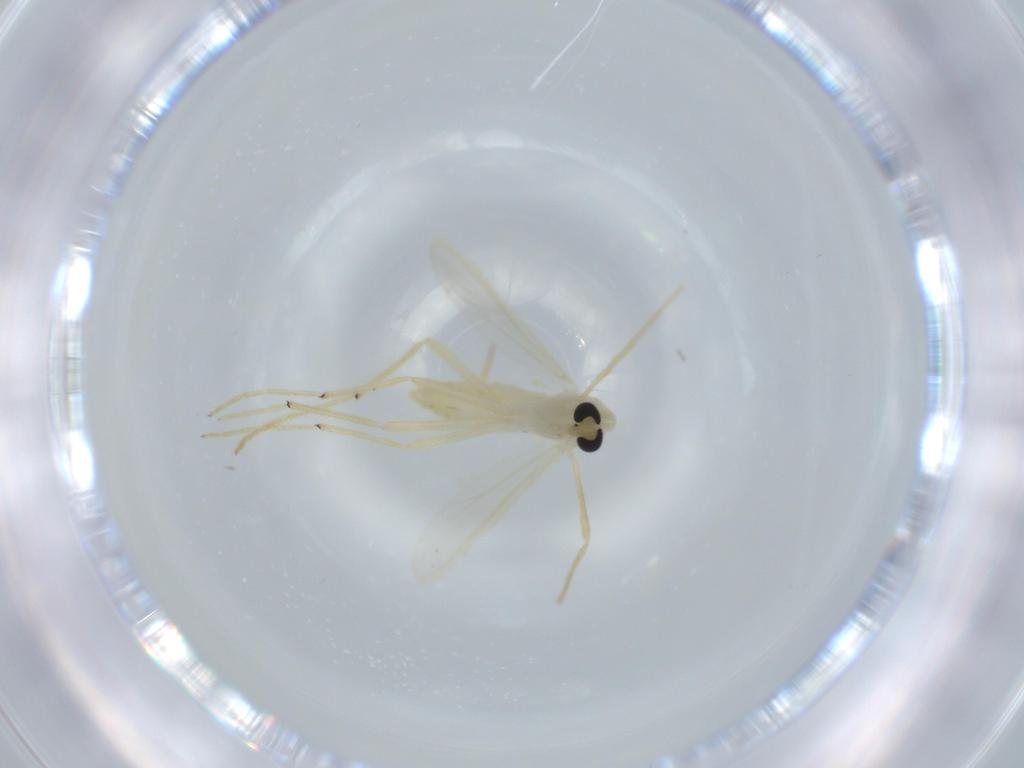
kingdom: Animalia
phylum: Arthropoda
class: Insecta
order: Diptera
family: Chironomidae
